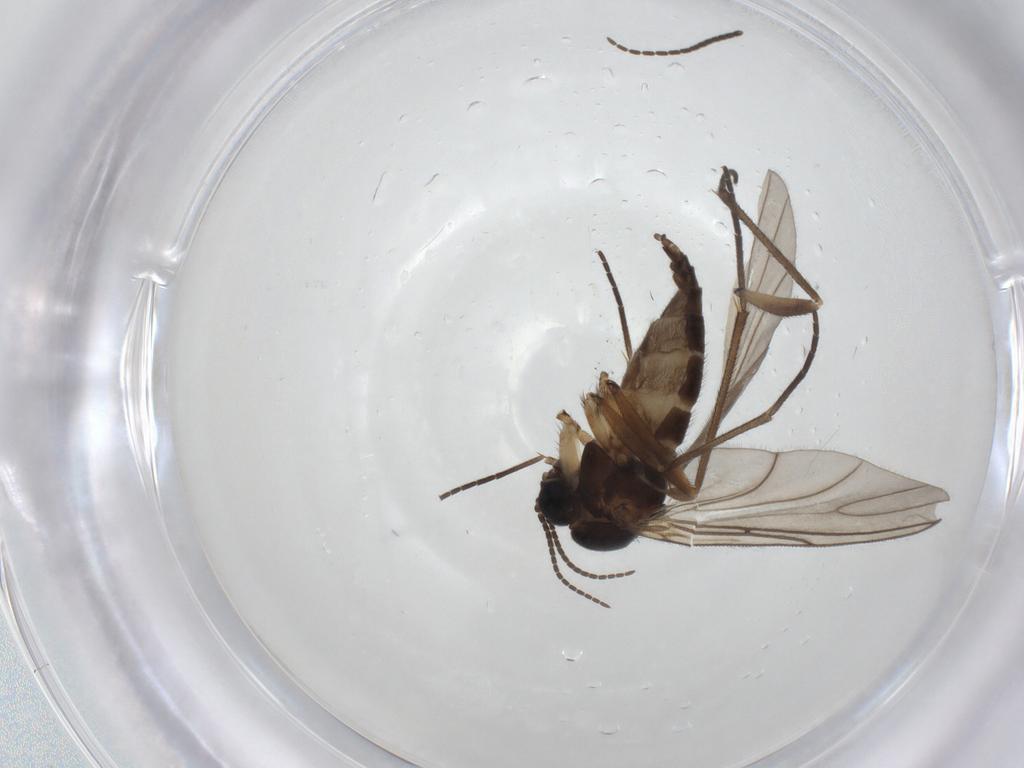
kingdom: Animalia
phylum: Arthropoda
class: Insecta
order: Diptera
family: Sciaridae
